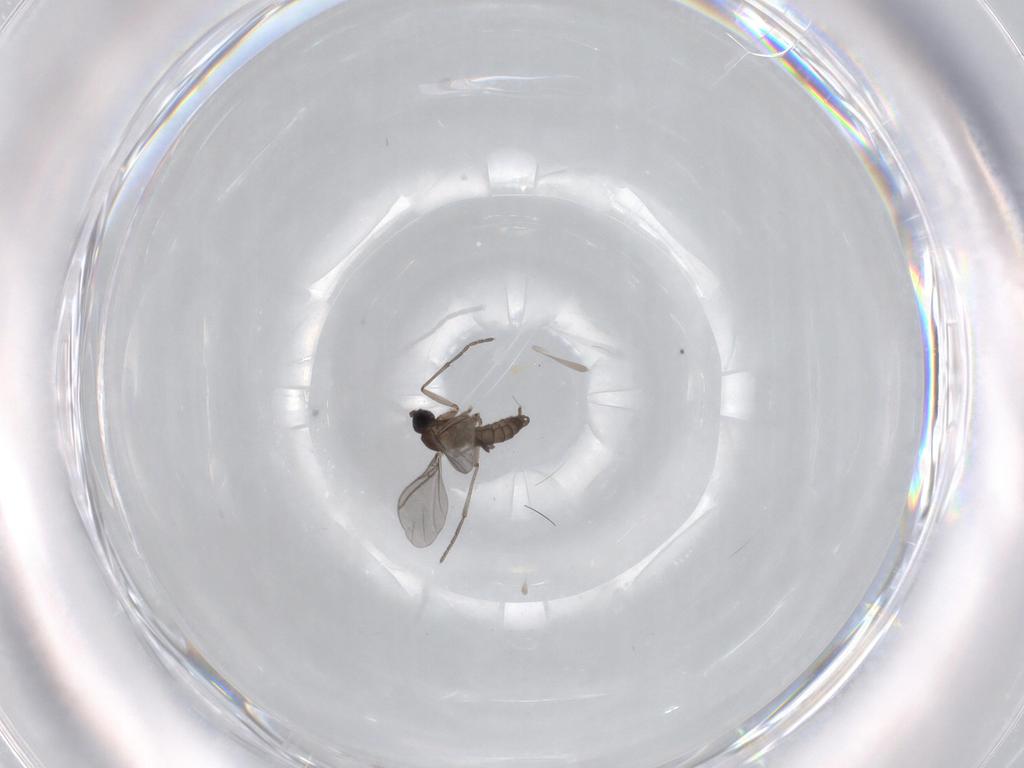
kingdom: Animalia
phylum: Arthropoda
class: Insecta
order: Diptera
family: Sciaridae
